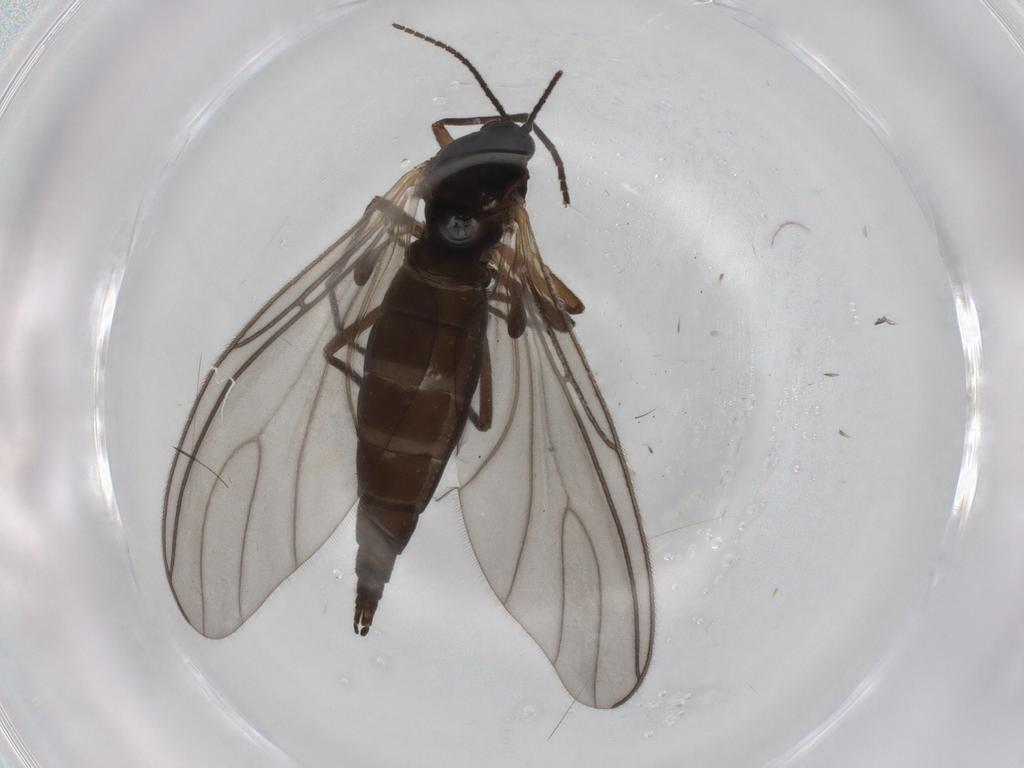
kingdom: Animalia
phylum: Arthropoda
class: Insecta
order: Diptera
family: Sciaridae
